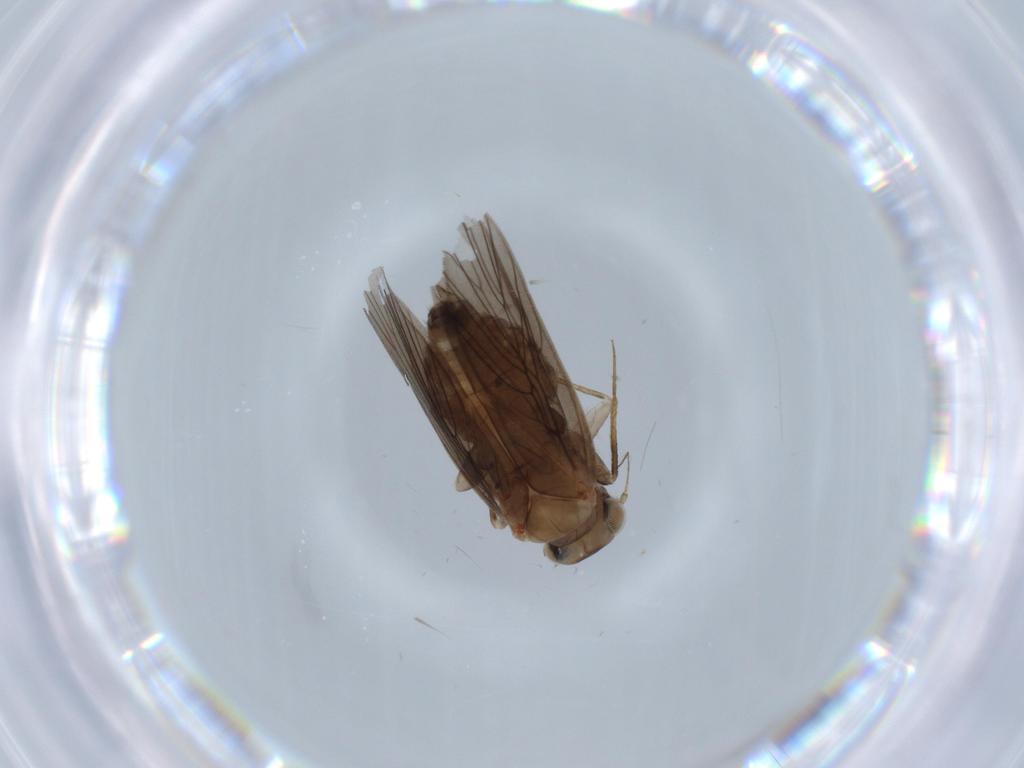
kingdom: Animalia
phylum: Arthropoda
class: Insecta
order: Psocodea
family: Lepidopsocidae
